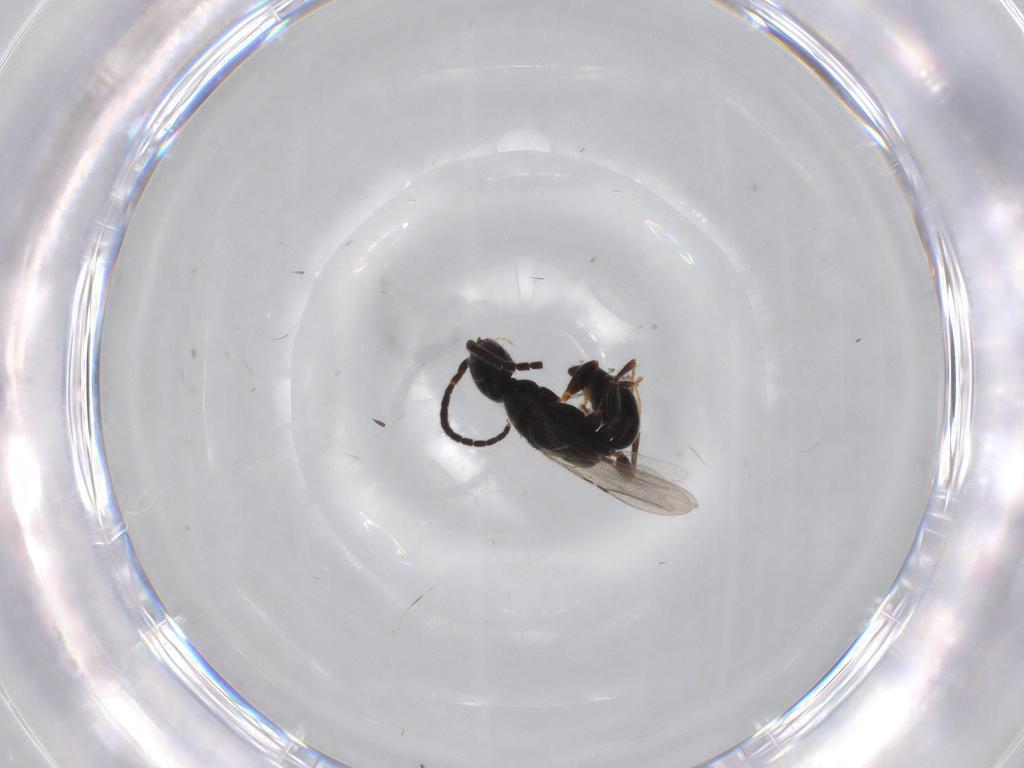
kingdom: Animalia
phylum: Arthropoda
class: Insecta
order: Hymenoptera
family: Bethylidae
